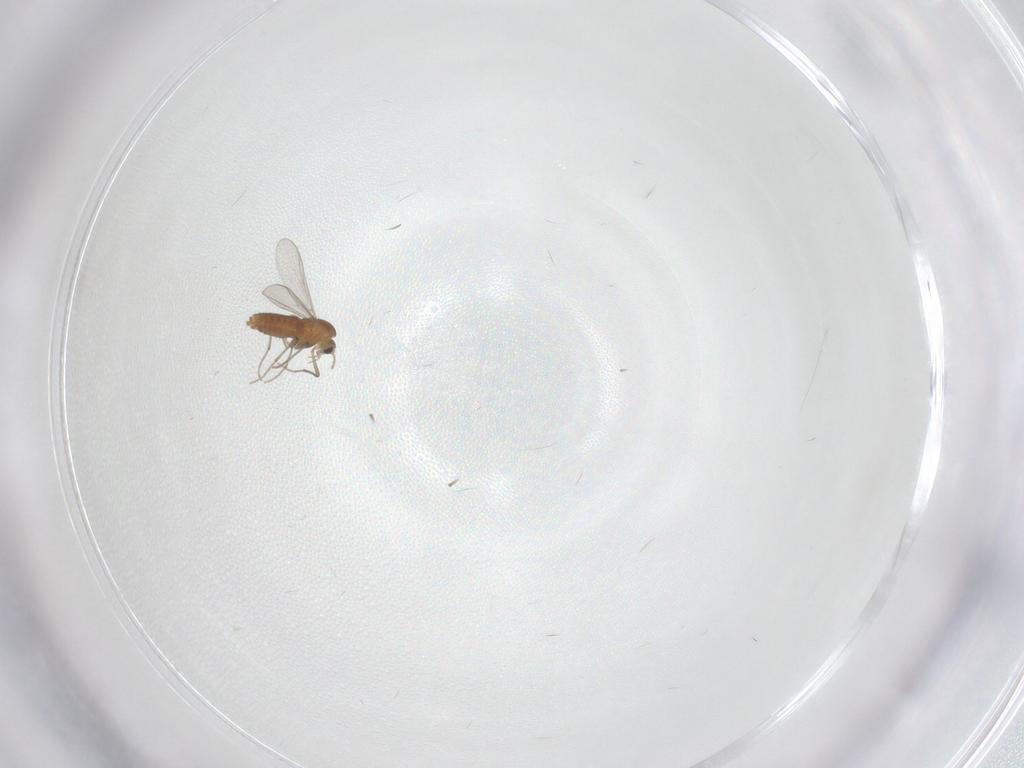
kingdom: Animalia
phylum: Arthropoda
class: Insecta
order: Diptera
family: Chironomidae
